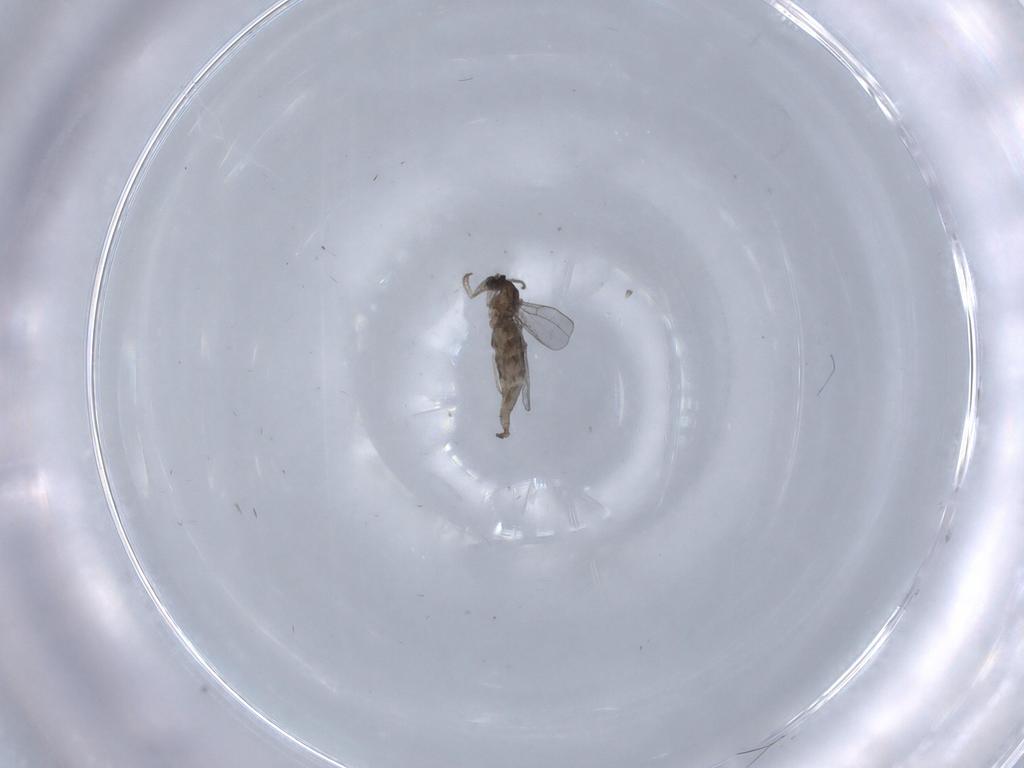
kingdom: Animalia
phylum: Arthropoda
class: Insecta
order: Diptera
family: Cecidomyiidae
